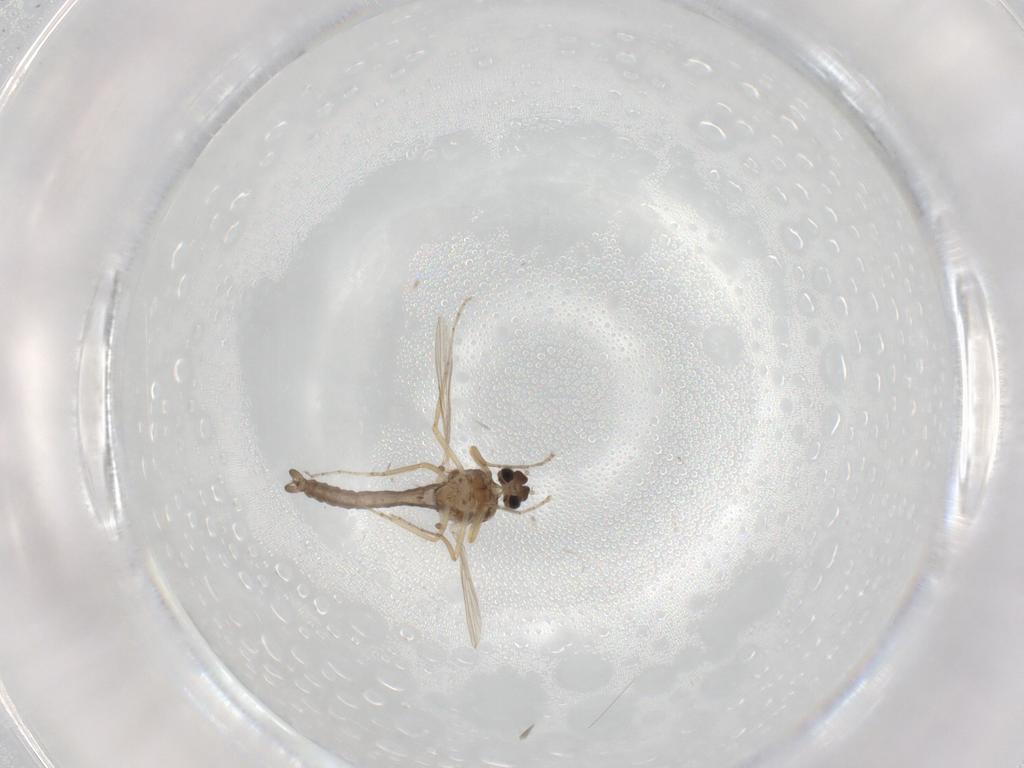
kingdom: Animalia
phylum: Arthropoda
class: Insecta
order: Diptera
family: Ceratopogonidae
